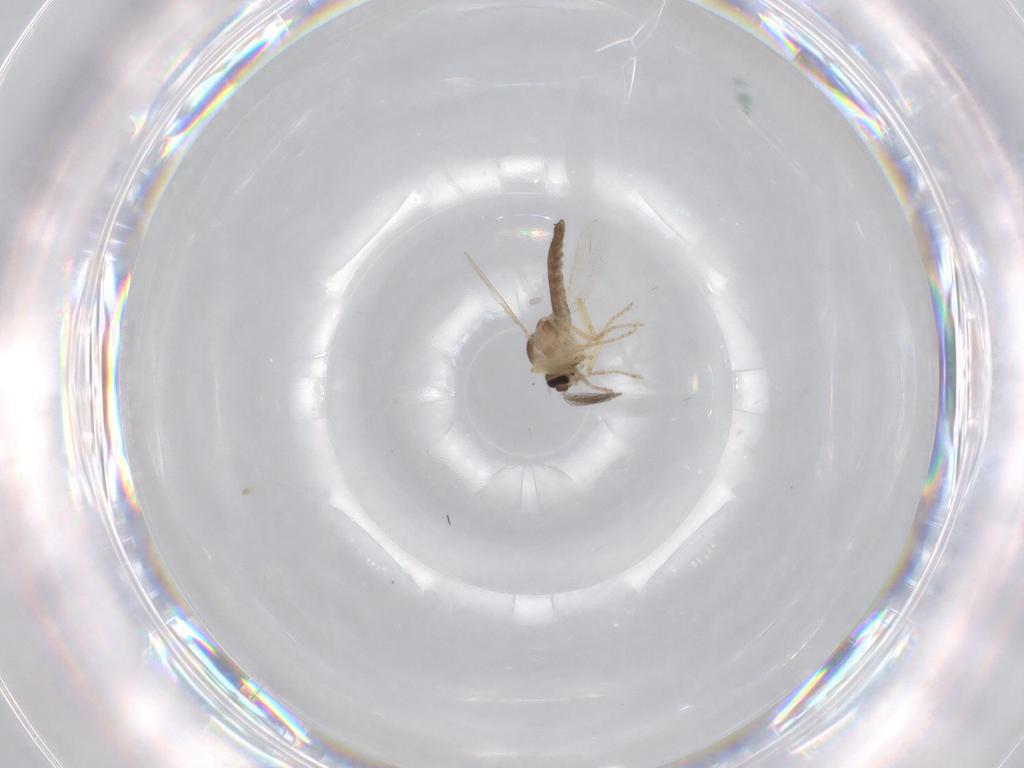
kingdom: Animalia
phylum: Arthropoda
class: Insecta
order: Diptera
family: Ceratopogonidae
